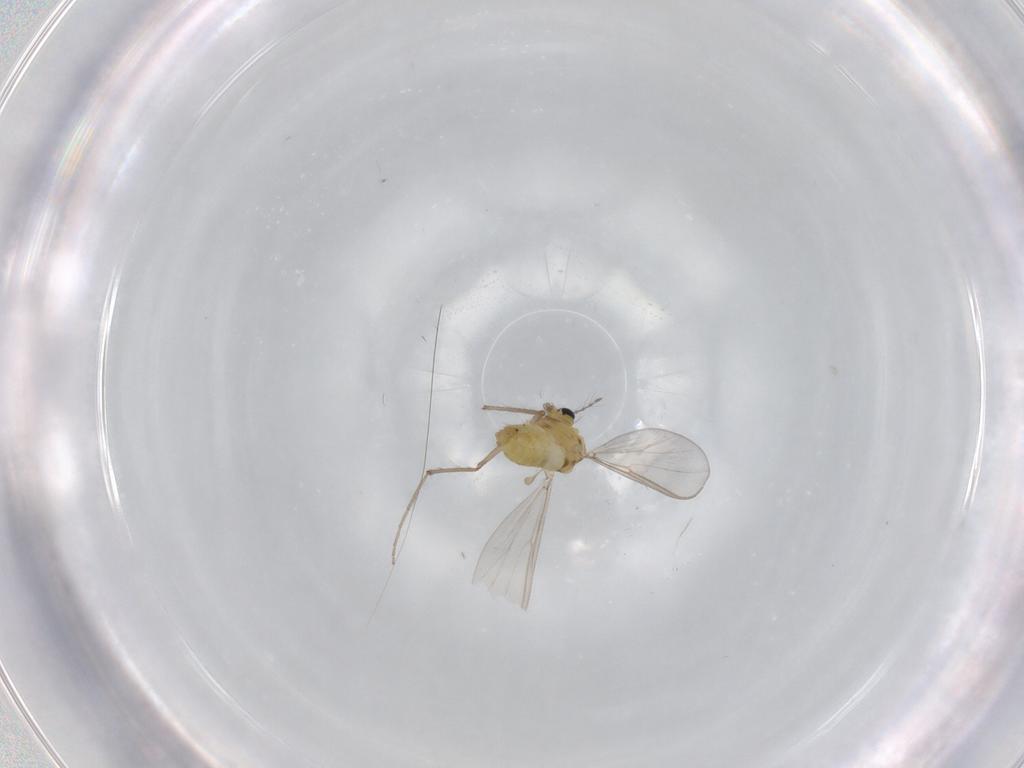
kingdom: Animalia
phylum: Arthropoda
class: Insecta
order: Diptera
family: Chironomidae
